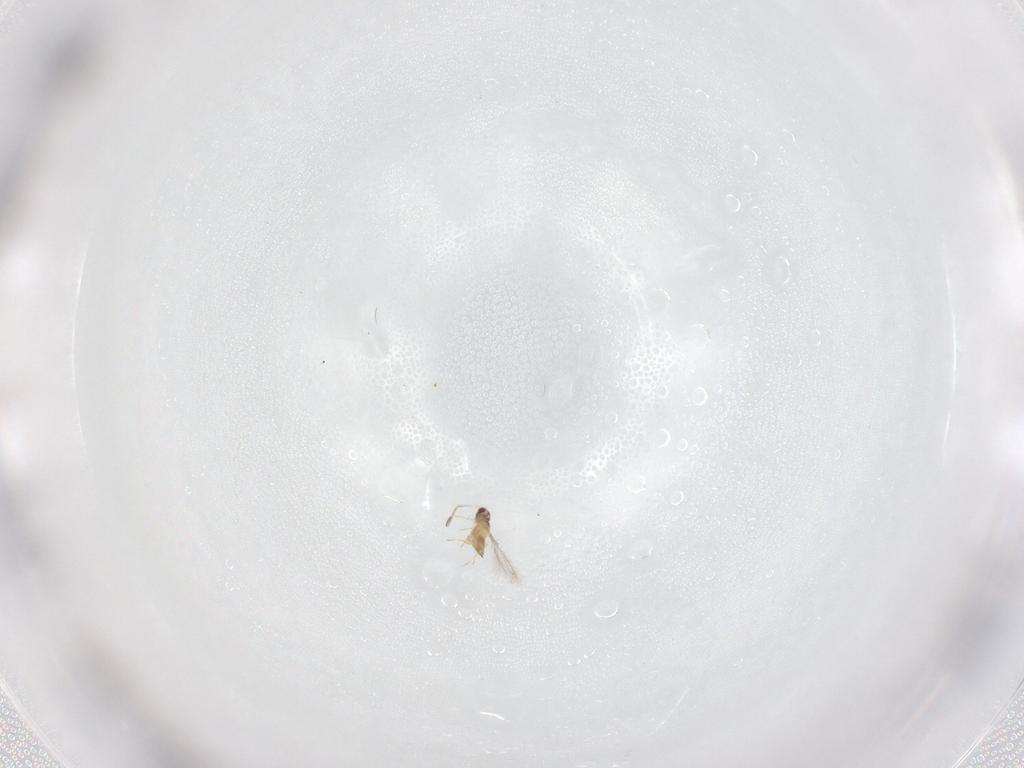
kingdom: Animalia
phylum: Arthropoda
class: Insecta
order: Hymenoptera
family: Mymaridae
